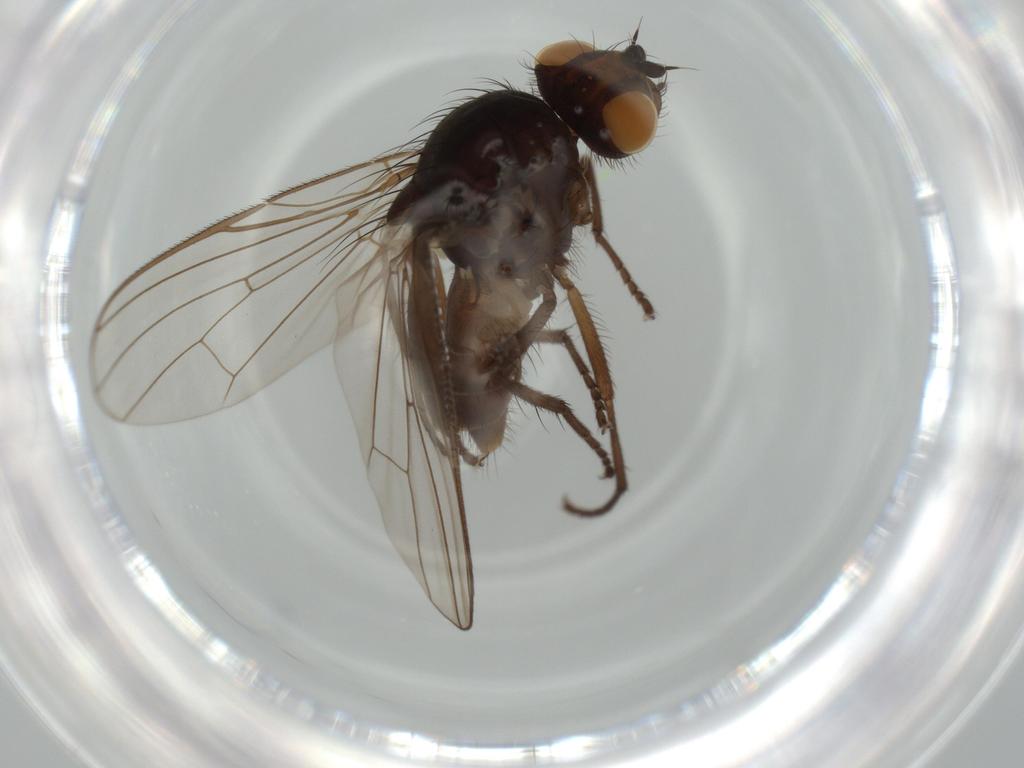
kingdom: Animalia
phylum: Arthropoda
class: Insecta
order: Diptera
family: Anthomyiidae
